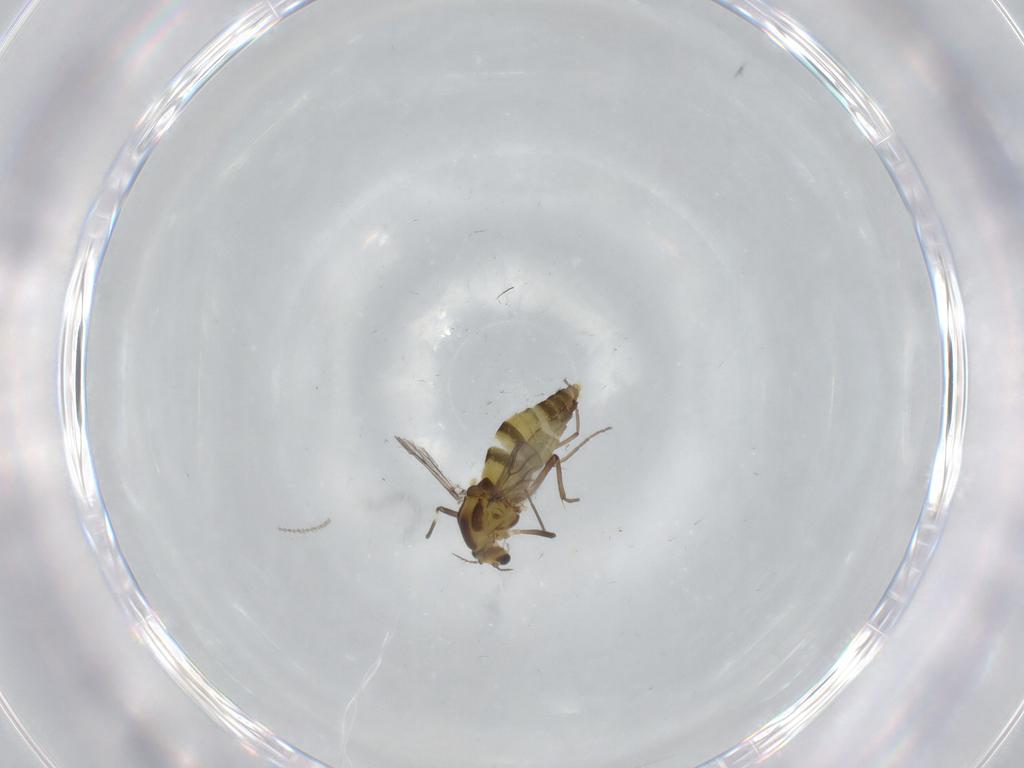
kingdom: Animalia
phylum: Arthropoda
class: Insecta
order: Diptera
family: Chironomidae
